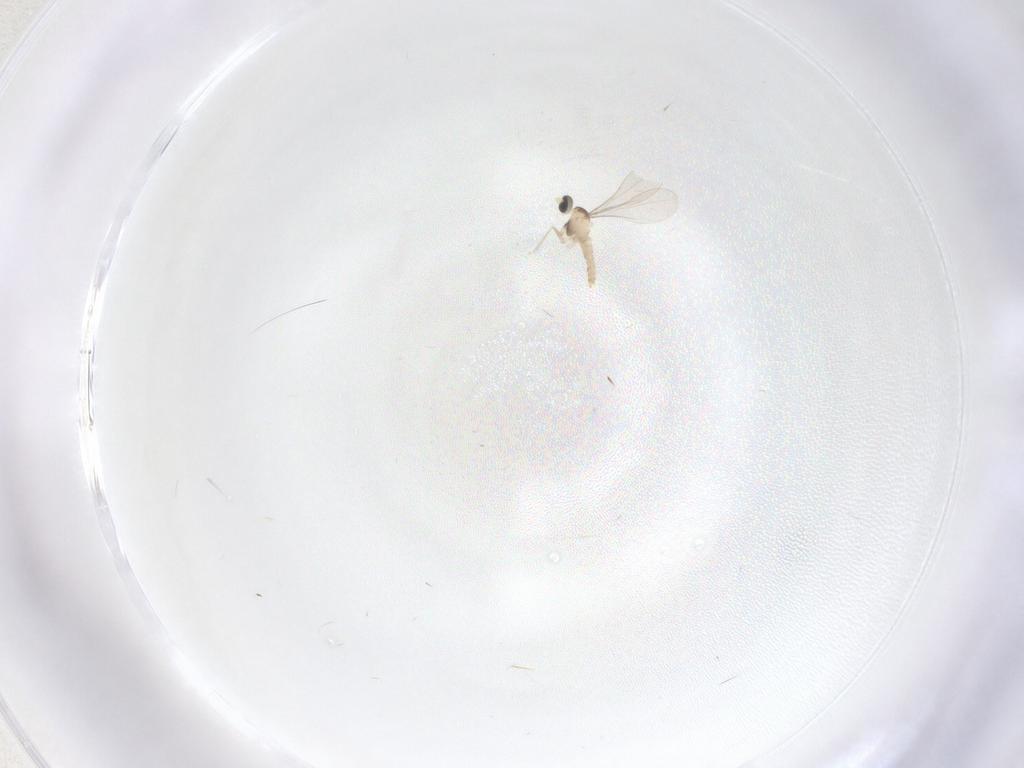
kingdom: Animalia
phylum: Arthropoda
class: Insecta
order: Diptera
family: Cecidomyiidae
